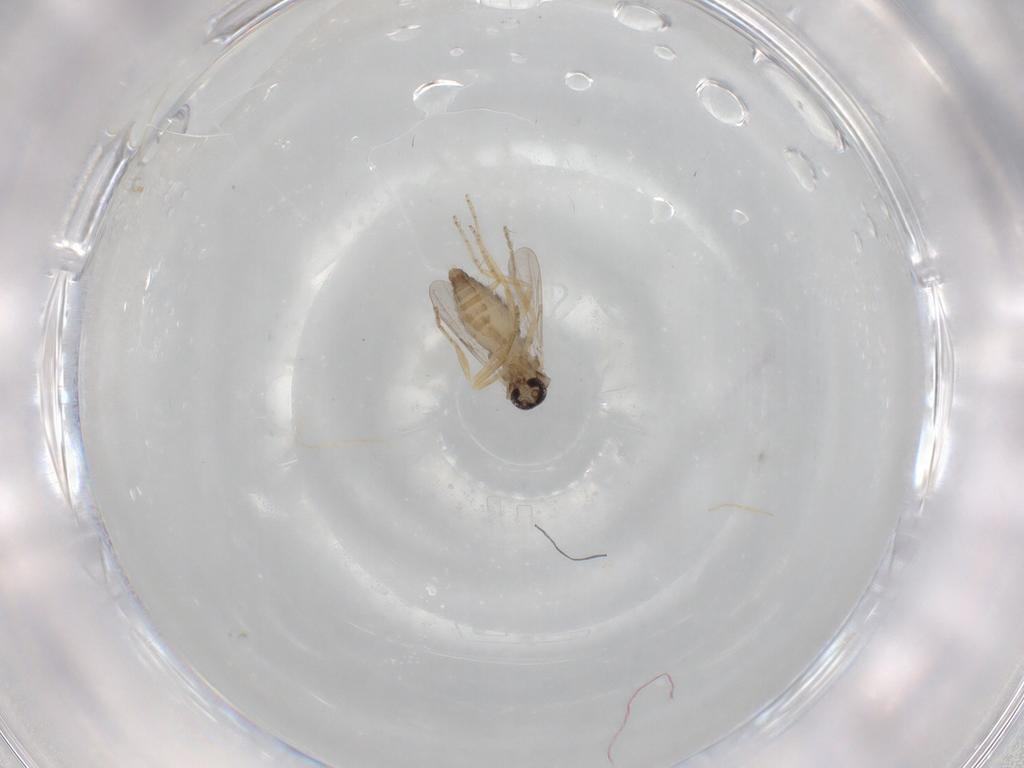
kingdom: Animalia
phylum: Arthropoda
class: Insecta
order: Diptera
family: Ceratopogonidae
